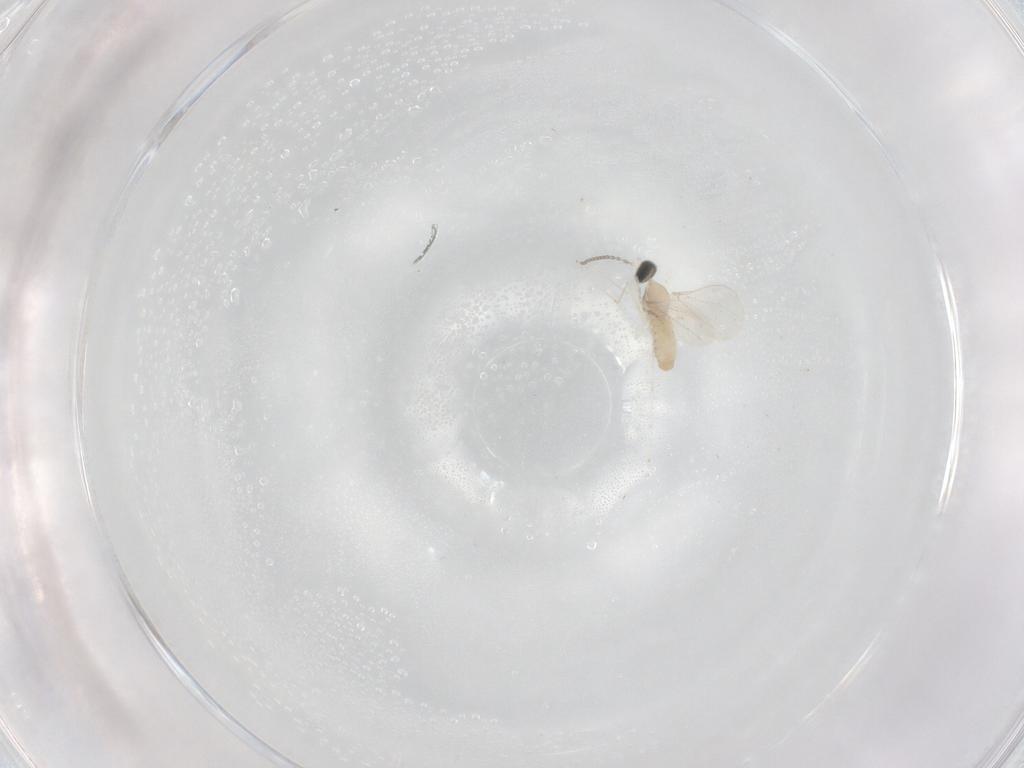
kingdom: Animalia
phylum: Arthropoda
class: Insecta
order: Diptera
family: Cecidomyiidae
